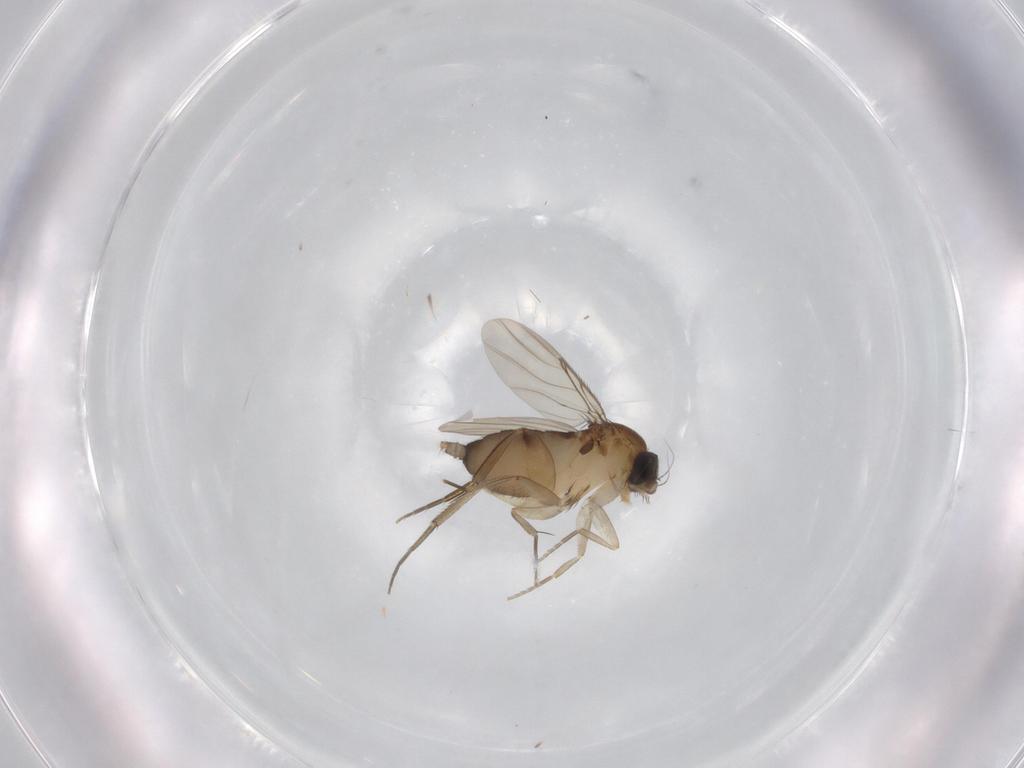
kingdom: Animalia
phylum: Arthropoda
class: Insecta
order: Diptera
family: Phoridae
